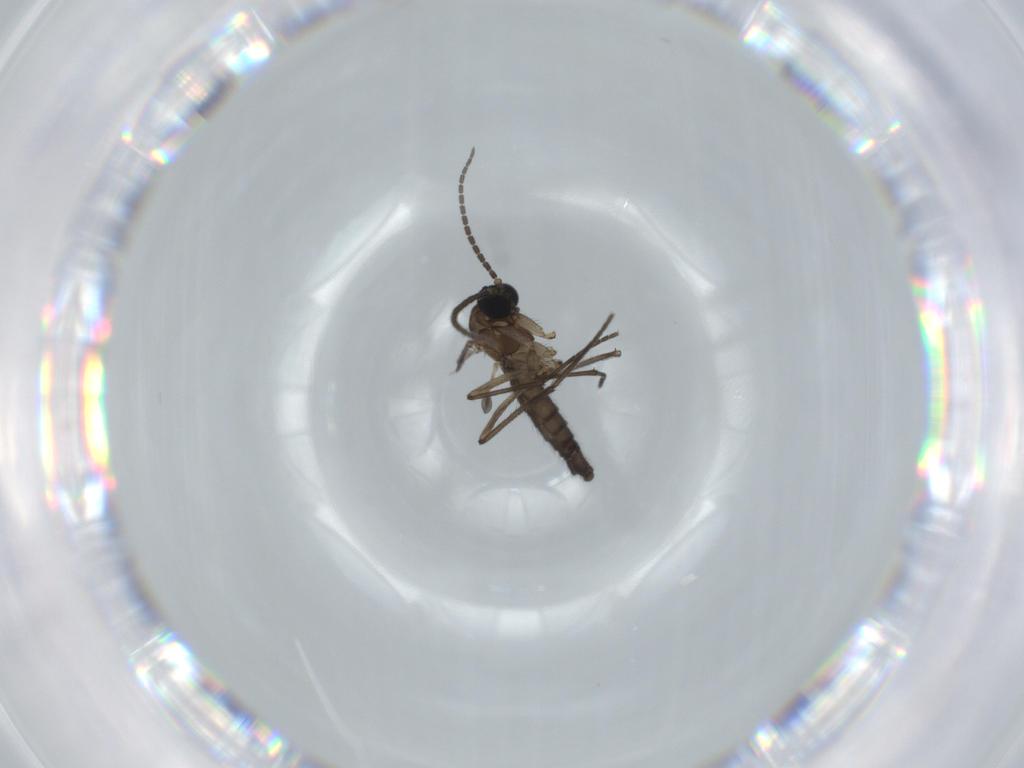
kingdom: Animalia
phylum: Arthropoda
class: Insecta
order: Diptera
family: Sciaridae
